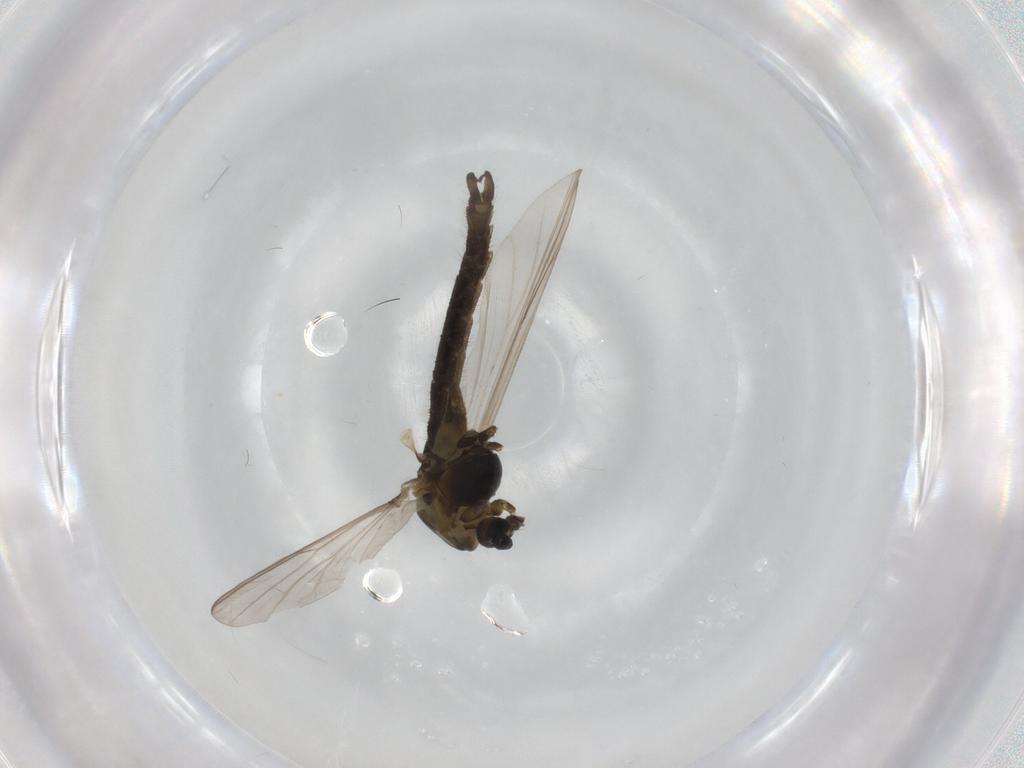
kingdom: Animalia
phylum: Arthropoda
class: Insecta
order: Diptera
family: Chironomidae
